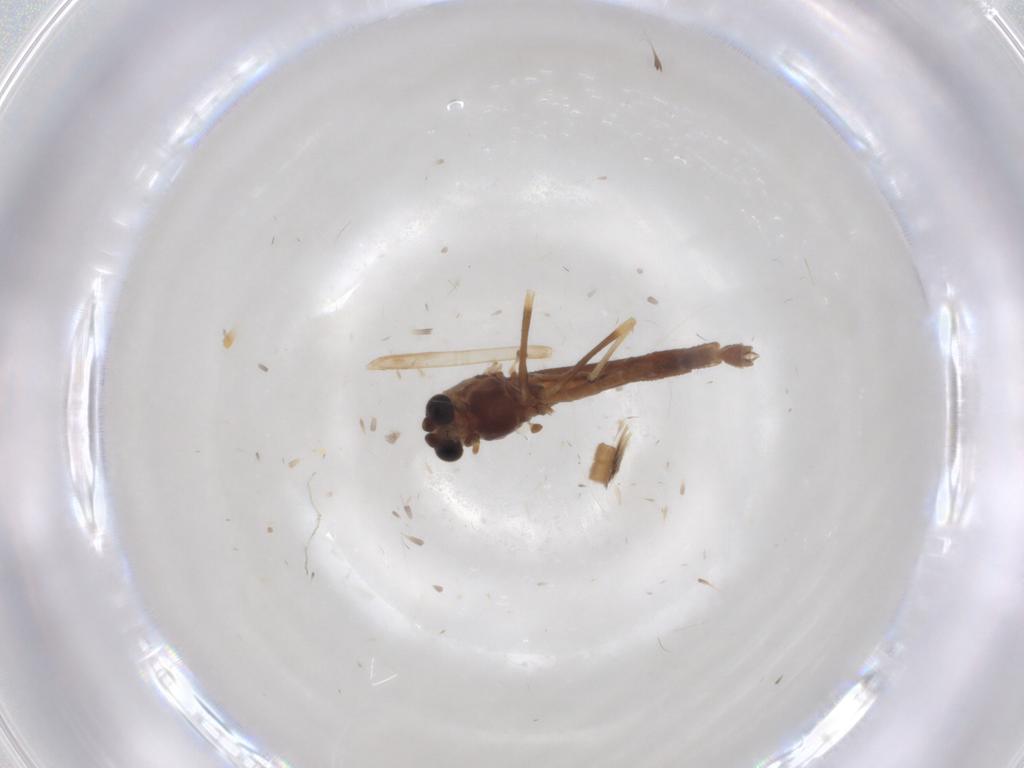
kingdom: Animalia
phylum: Arthropoda
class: Insecta
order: Diptera
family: Chironomidae
